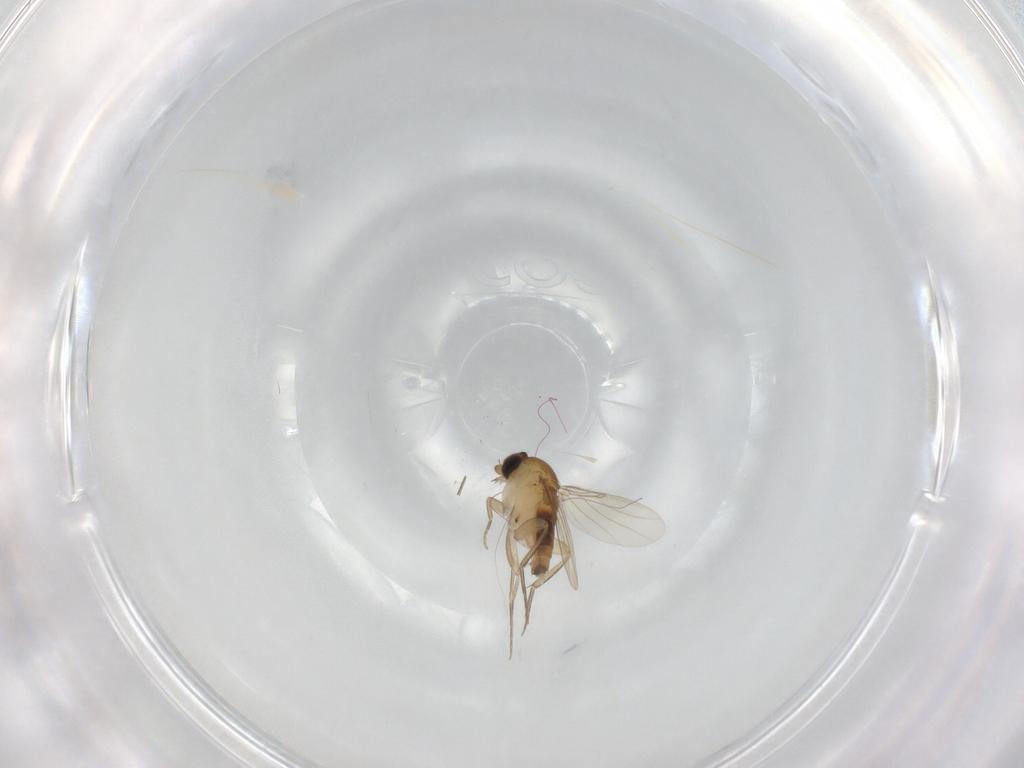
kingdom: Animalia
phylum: Arthropoda
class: Insecta
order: Diptera
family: Phoridae
